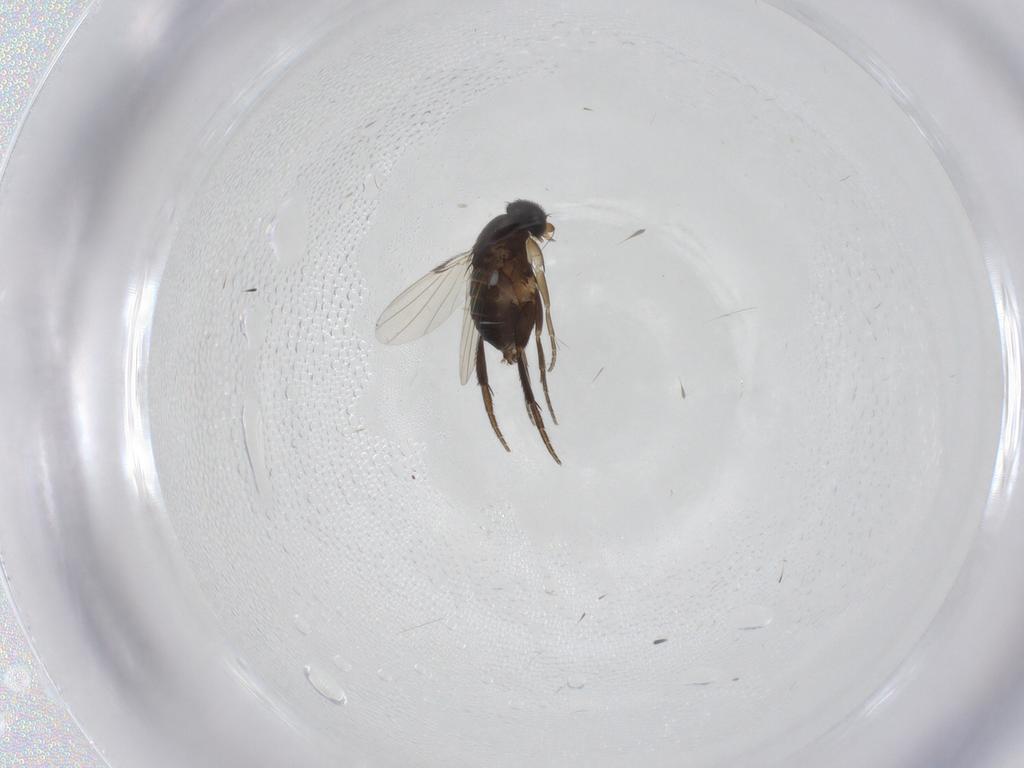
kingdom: Animalia
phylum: Arthropoda
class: Insecta
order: Diptera
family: Phoridae
